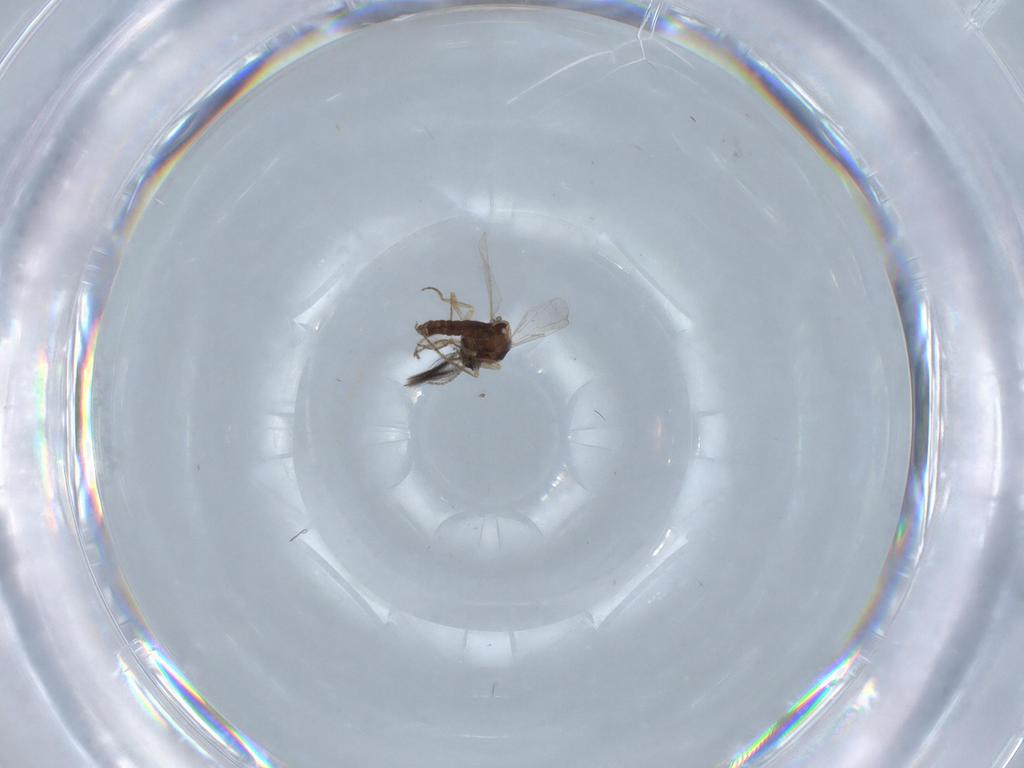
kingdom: Animalia
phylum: Arthropoda
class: Insecta
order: Diptera
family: Ceratopogonidae
